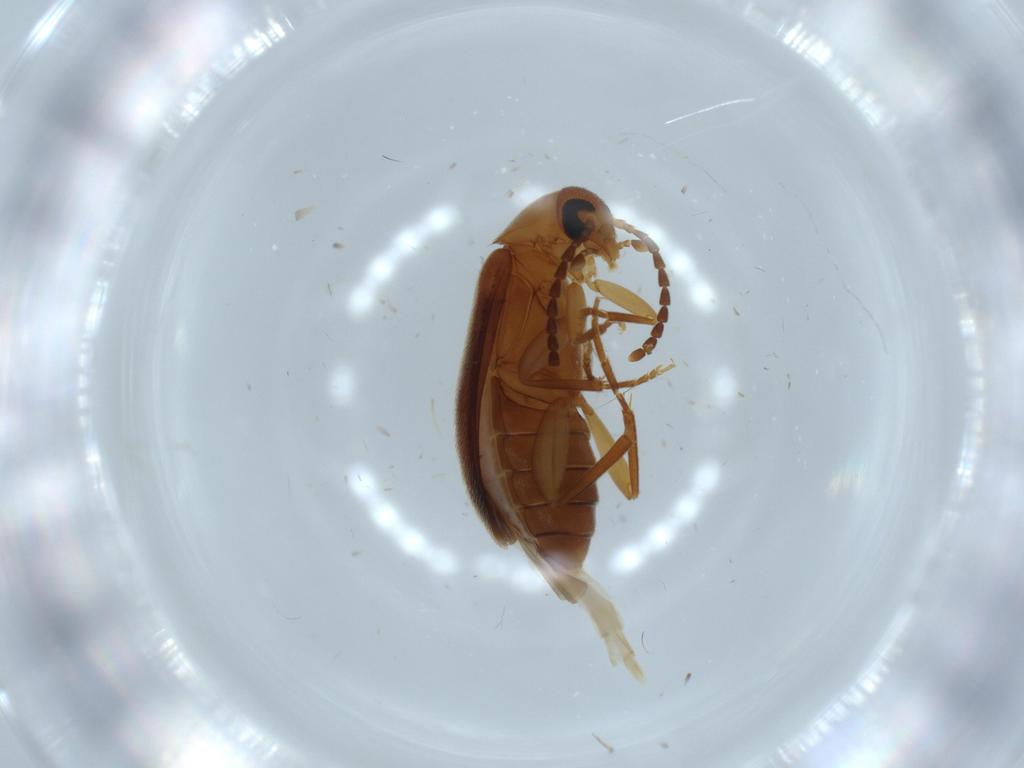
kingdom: Animalia
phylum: Arthropoda
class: Insecta
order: Coleoptera
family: Scraptiidae
